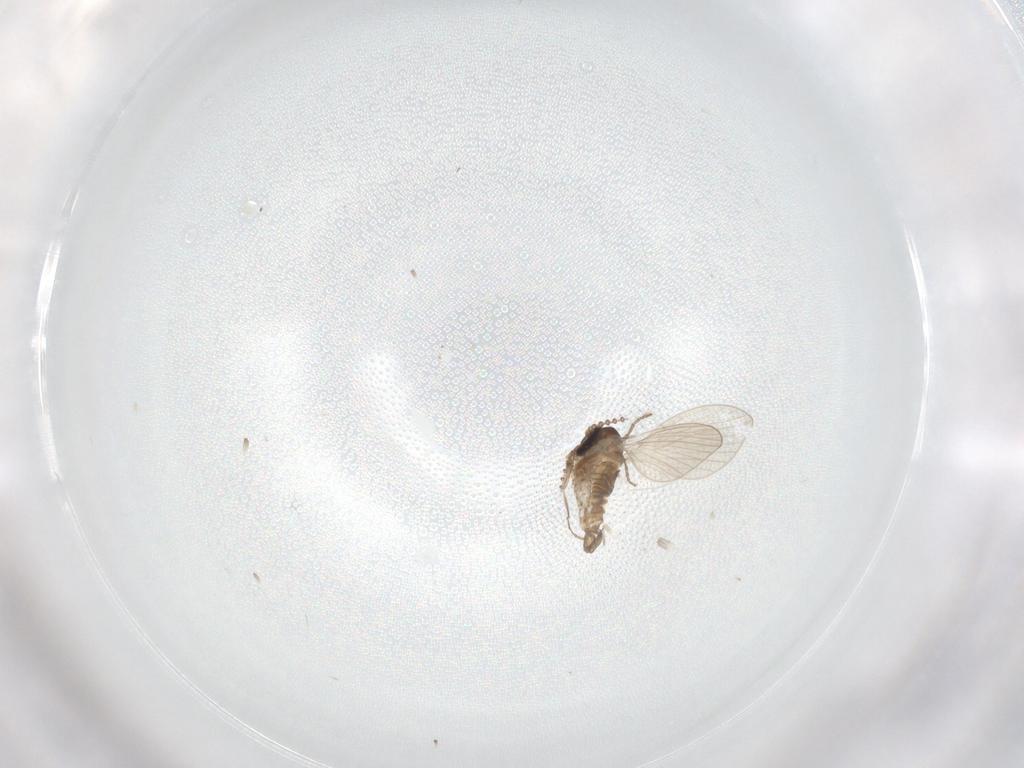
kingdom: Animalia
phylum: Arthropoda
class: Insecta
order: Diptera
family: Psychodidae
